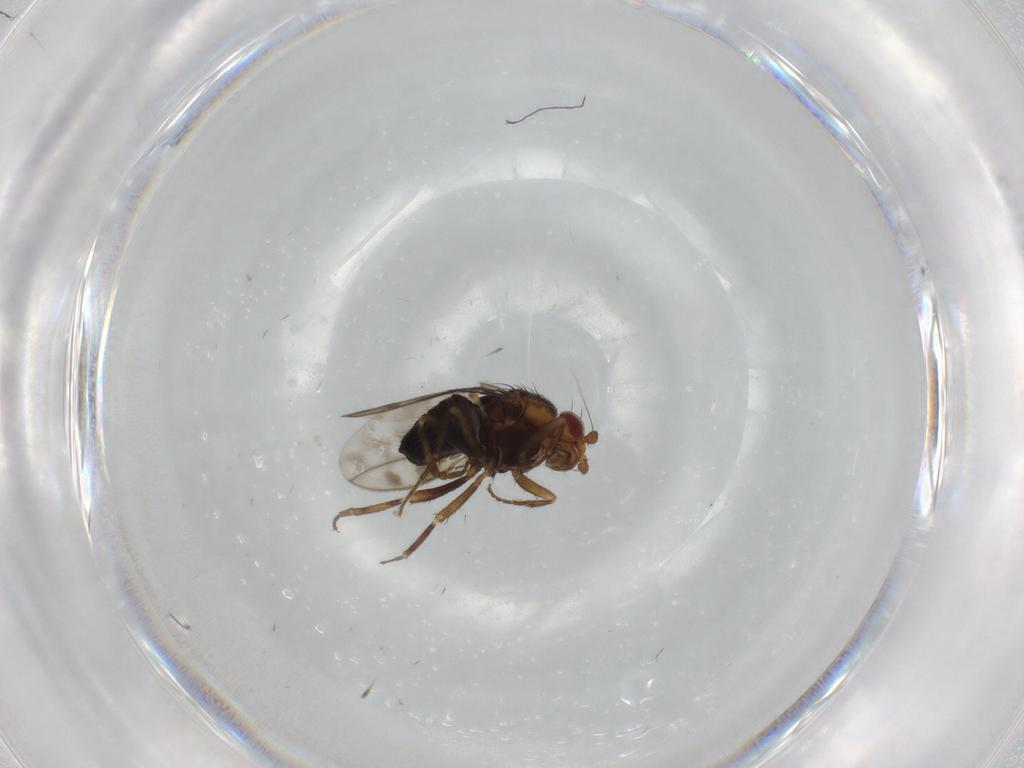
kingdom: Animalia
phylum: Arthropoda
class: Insecta
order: Diptera
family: Sphaeroceridae
